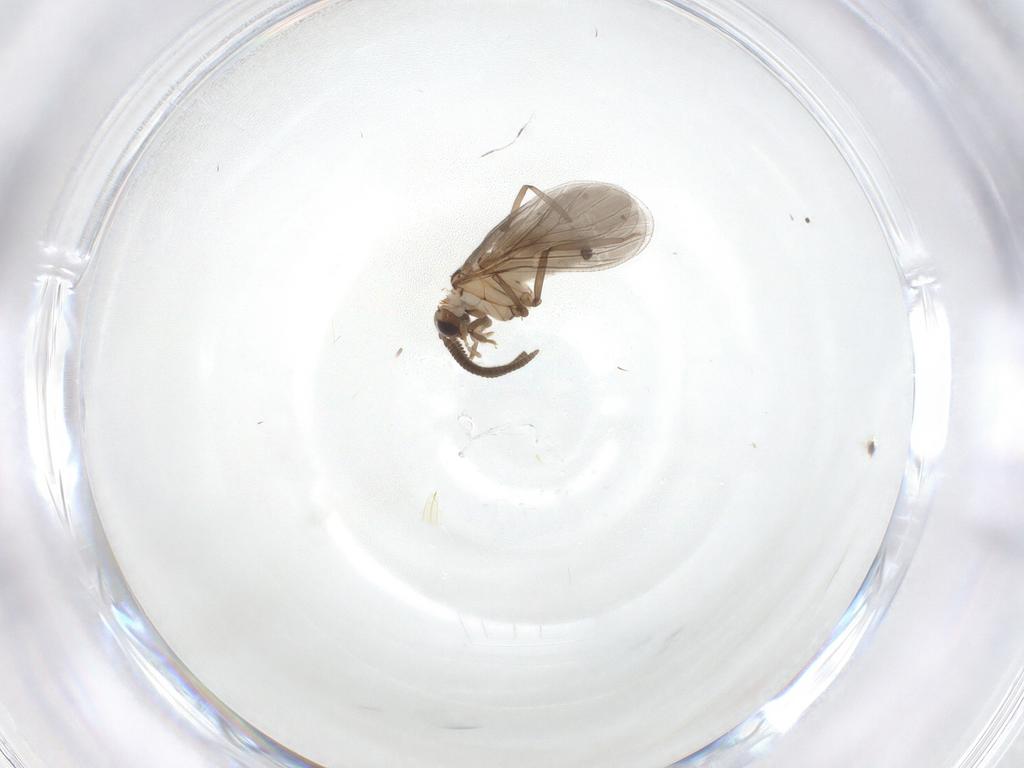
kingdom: Animalia
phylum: Arthropoda
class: Insecta
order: Neuroptera
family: Coniopterygidae
